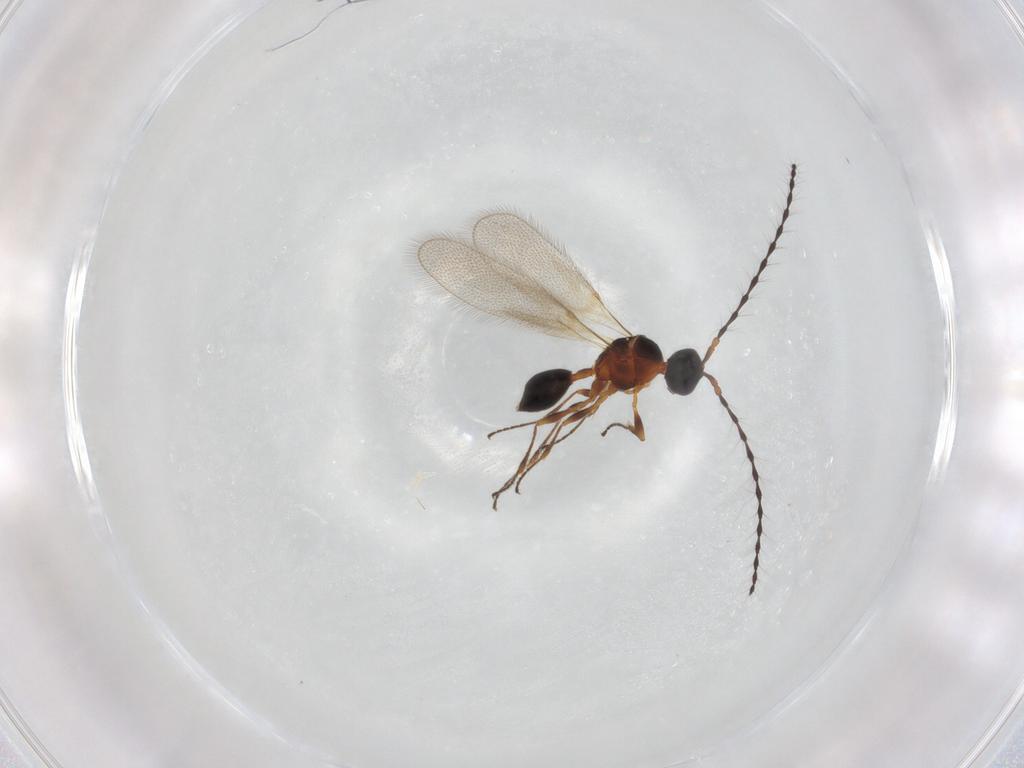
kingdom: Animalia
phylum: Arthropoda
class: Insecta
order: Hymenoptera
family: Diapriidae
